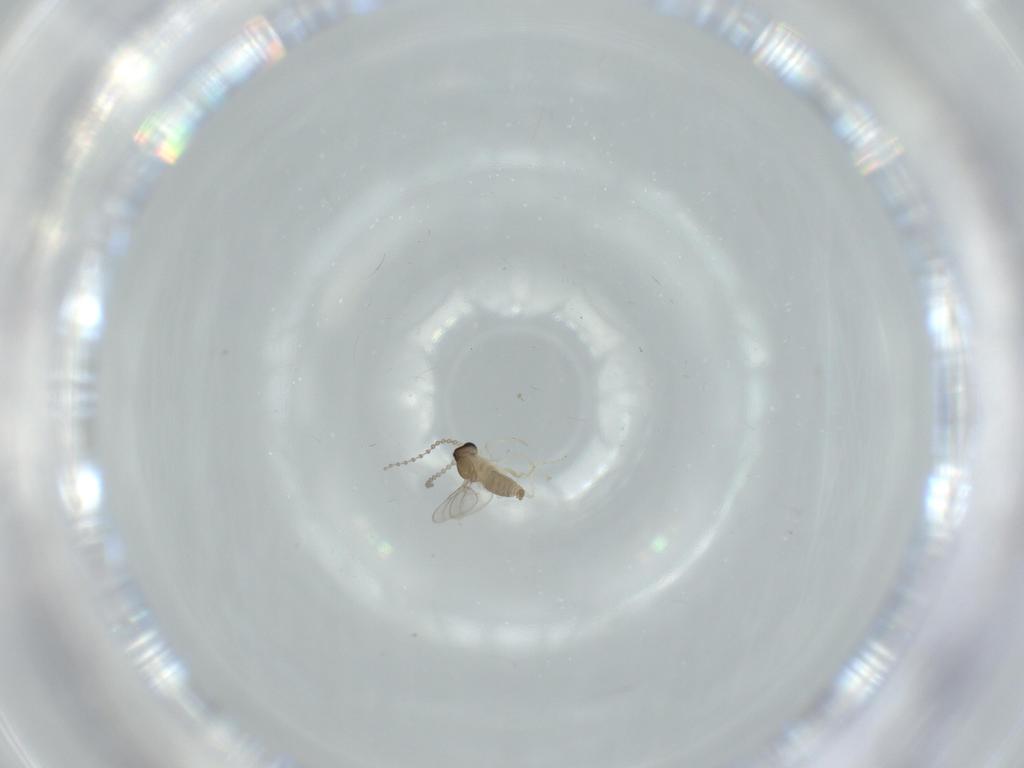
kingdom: Animalia
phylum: Arthropoda
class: Insecta
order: Diptera
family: Cecidomyiidae
